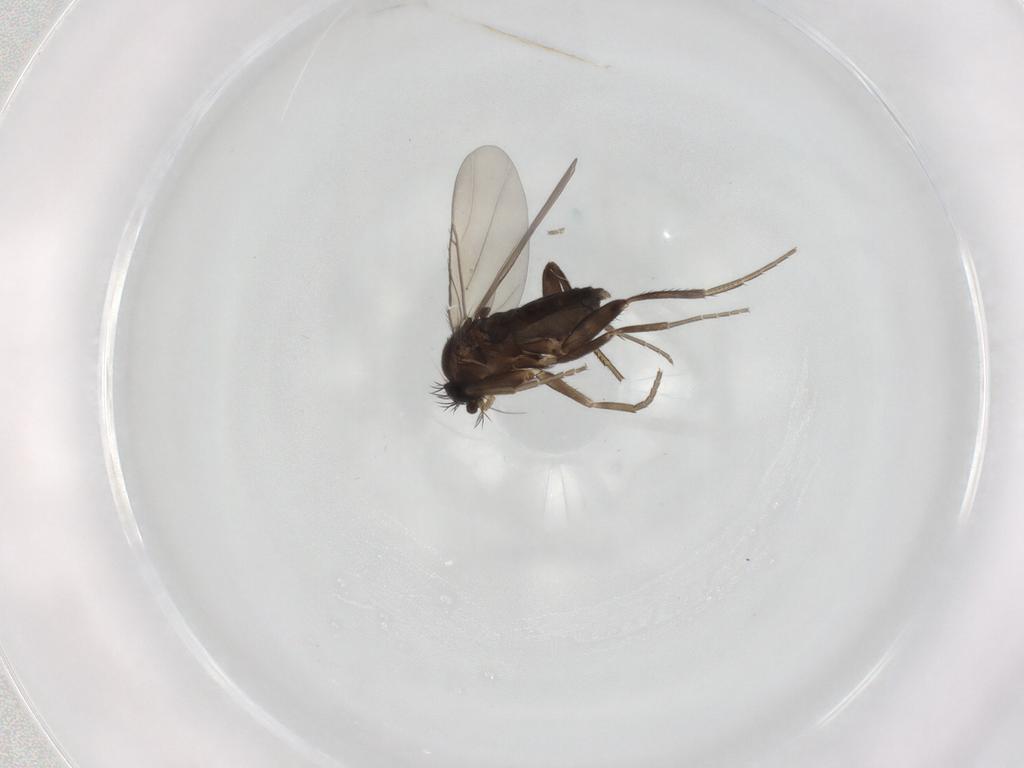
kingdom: Animalia
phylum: Arthropoda
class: Insecta
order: Diptera
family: Phoridae
